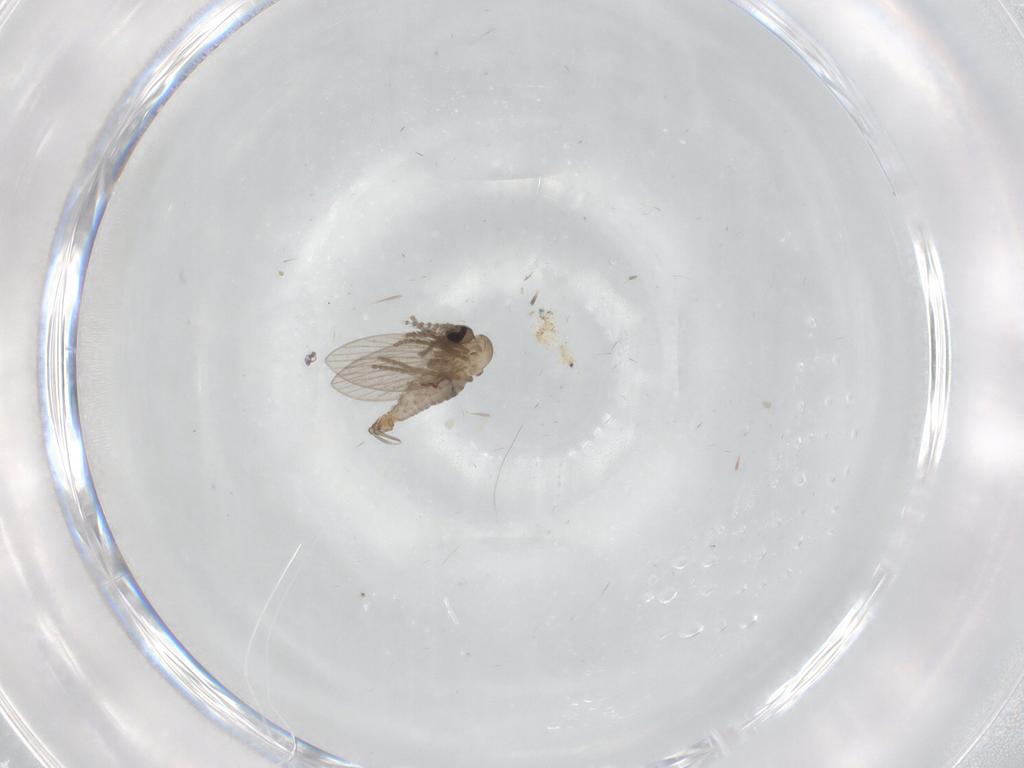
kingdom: Animalia
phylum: Arthropoda
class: Insecta
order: Diptera
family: Psychodidae
